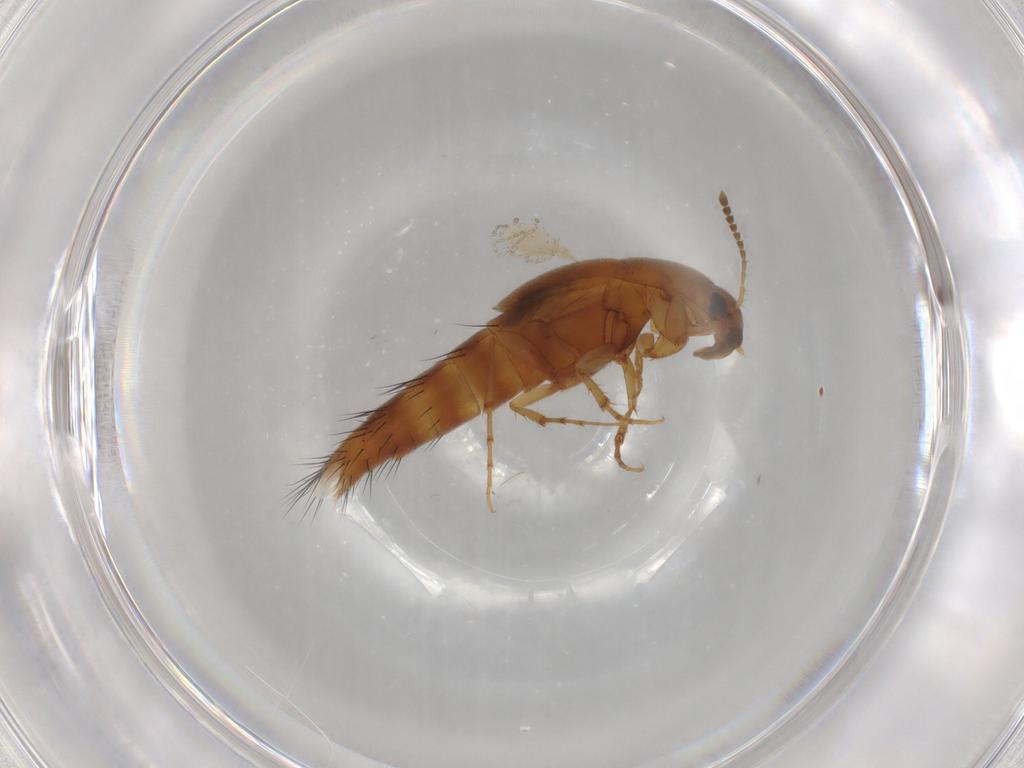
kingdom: Animalia
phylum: Arthropoda
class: Insecta
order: Coleoptera
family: Staphylinidae
